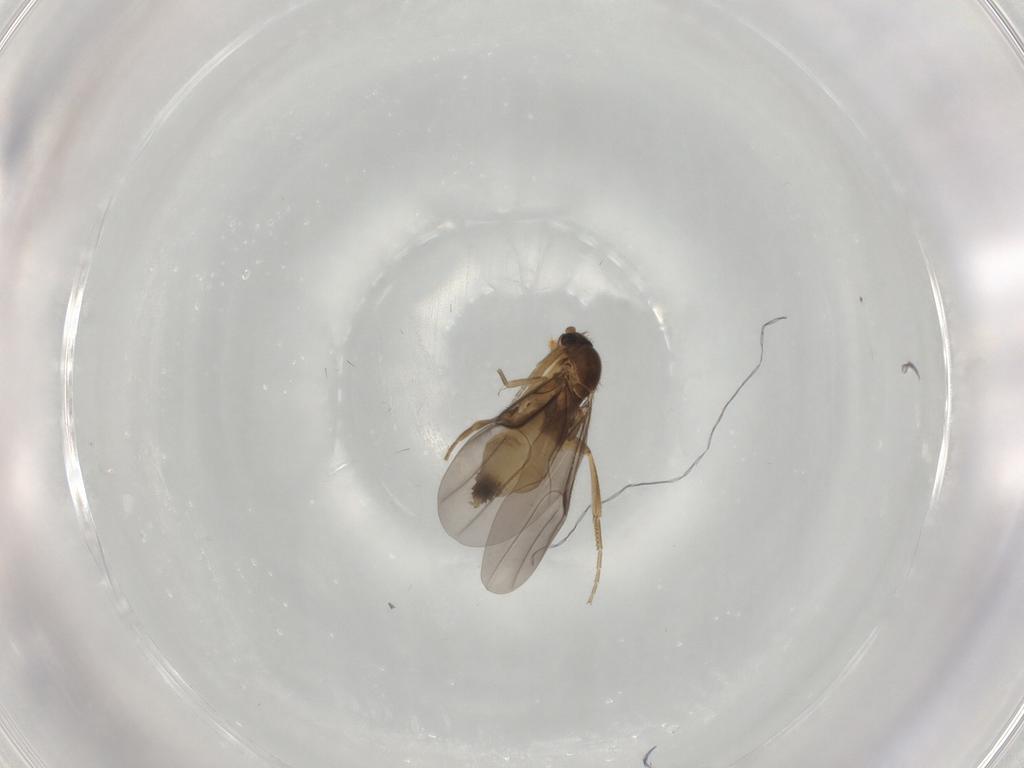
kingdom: Animalia
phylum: Arthropoda
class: Insecta
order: Diptera
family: Phoridae
